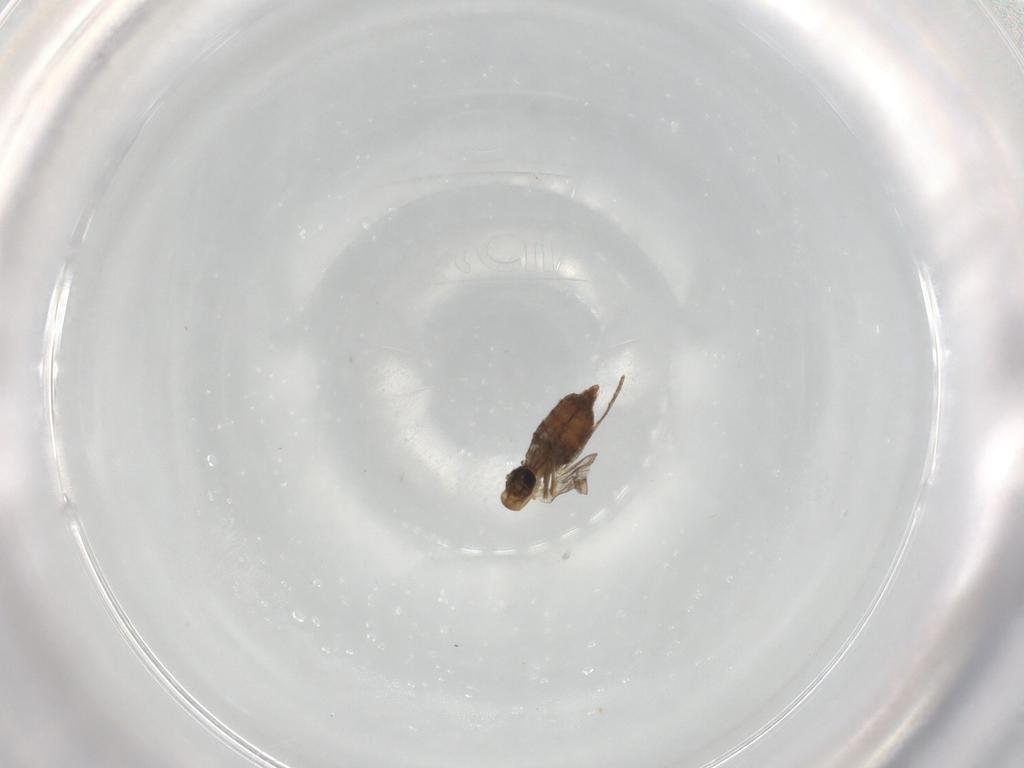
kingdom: Animalia
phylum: Arthropoda
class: Insecta
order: Diptera
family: Psychodidae
